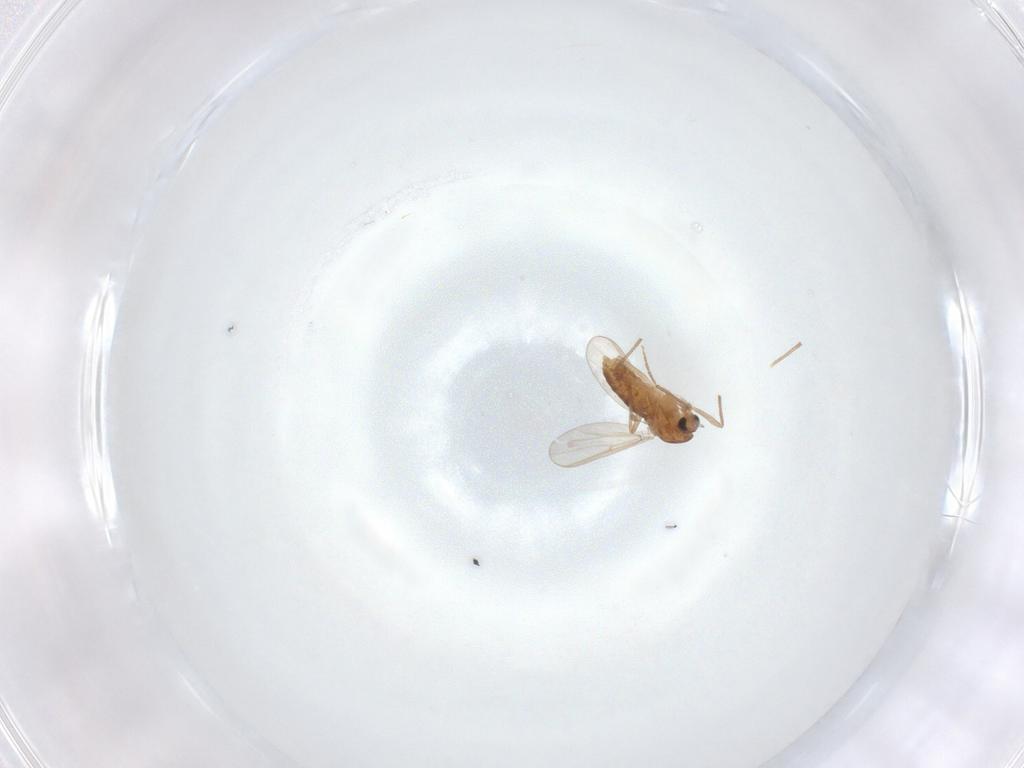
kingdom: Animalia
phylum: Arthropoda
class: Insecta
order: Diptera
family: Chironomidae
